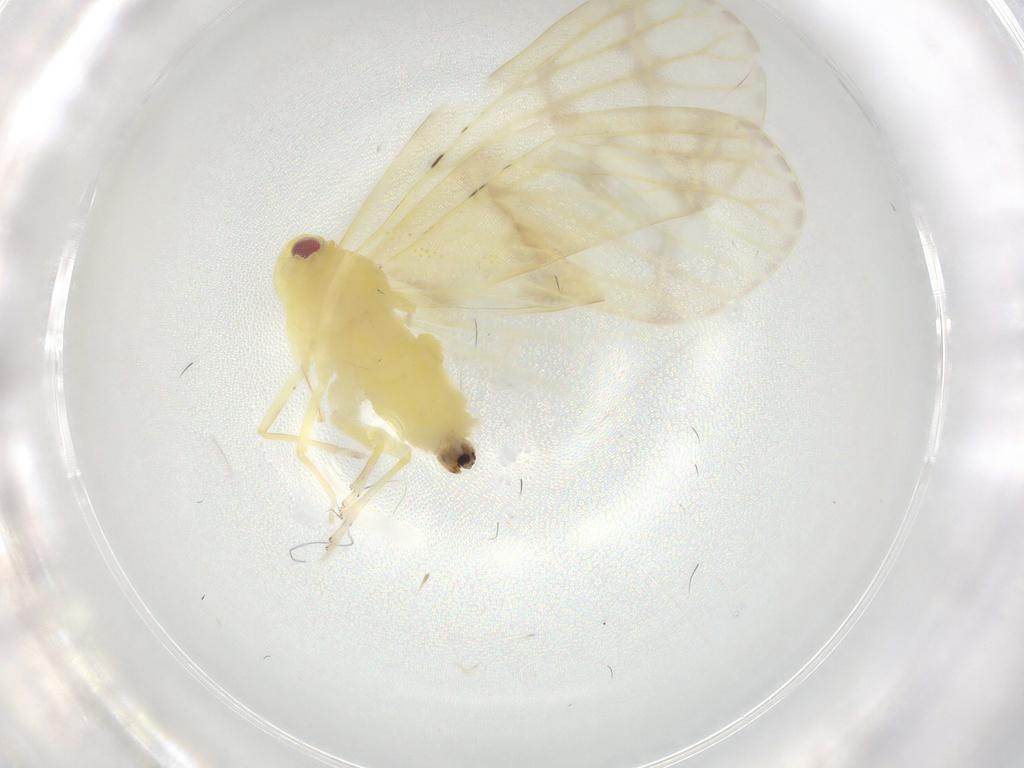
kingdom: Animalia
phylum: Arthropoda
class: Insecta
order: Hemiptera
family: Derbidae
